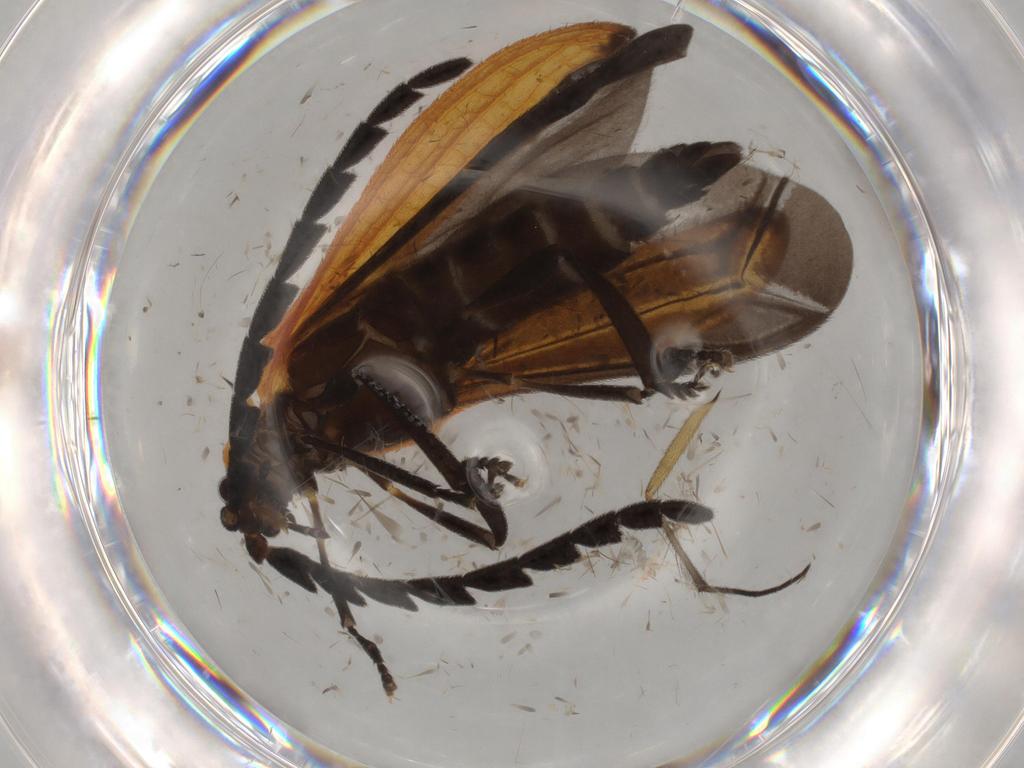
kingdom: Animalia
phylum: Arthropoda
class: Insecta
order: Coleoptera
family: Lycidae
